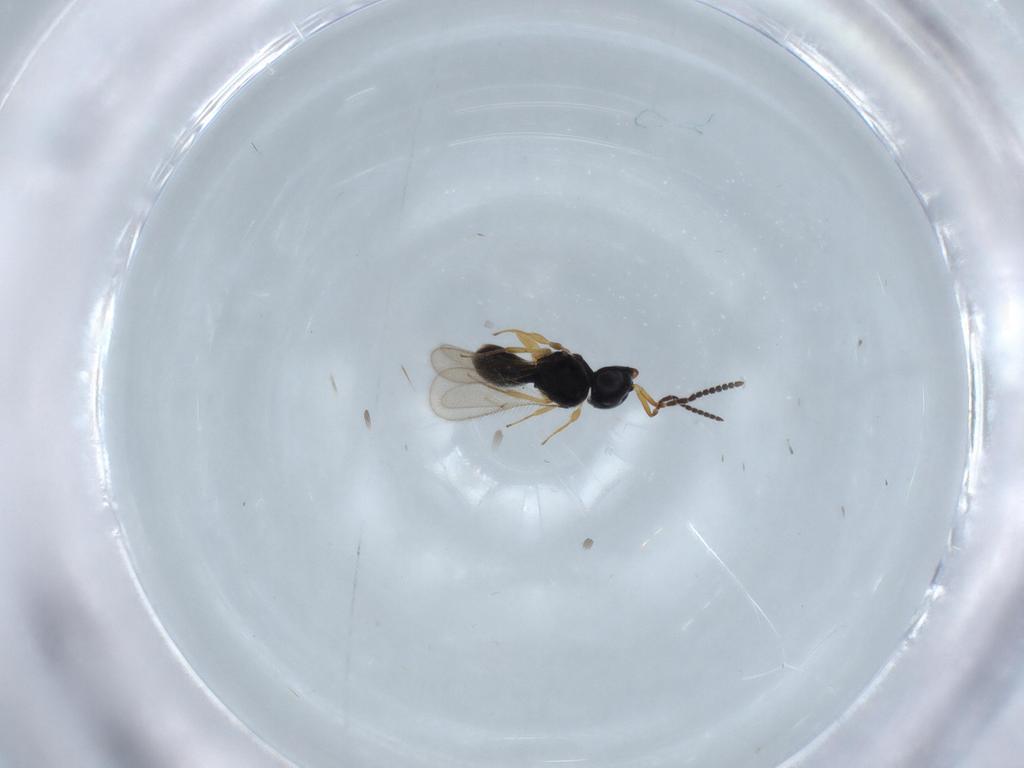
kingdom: Animalia
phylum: Arthropoda
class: Insecta
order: Hymenoptera
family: Scelionidae
